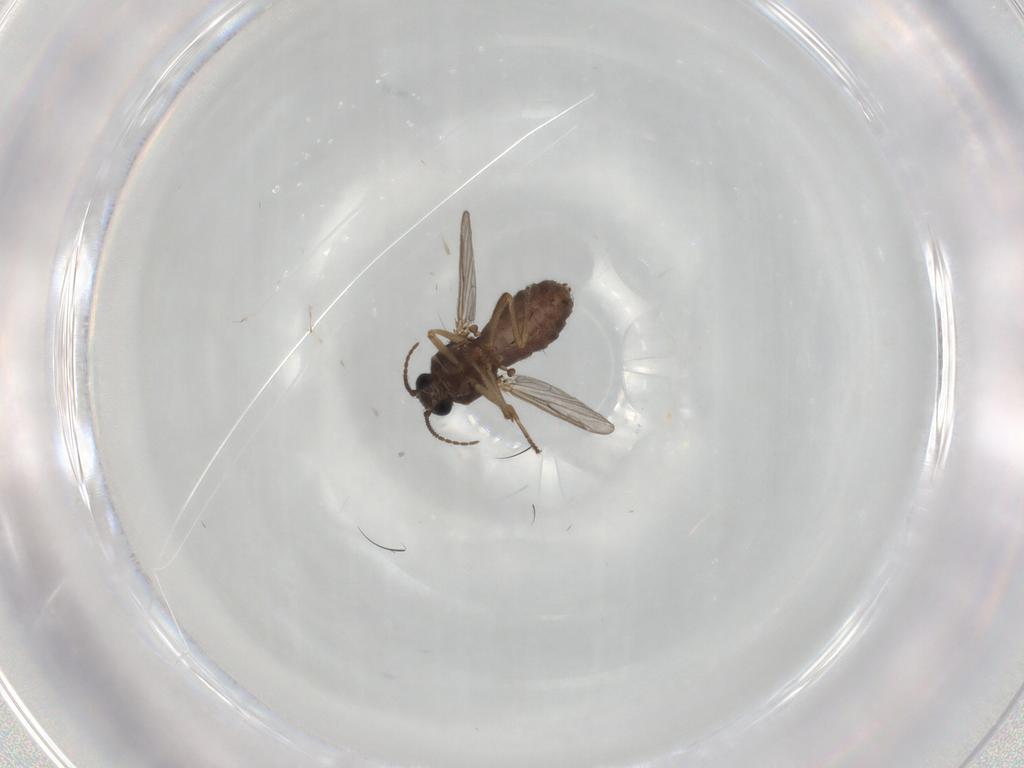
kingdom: Animalia
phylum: Arthropoda
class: Insecta
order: Diptera
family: Ceratopogonidae
